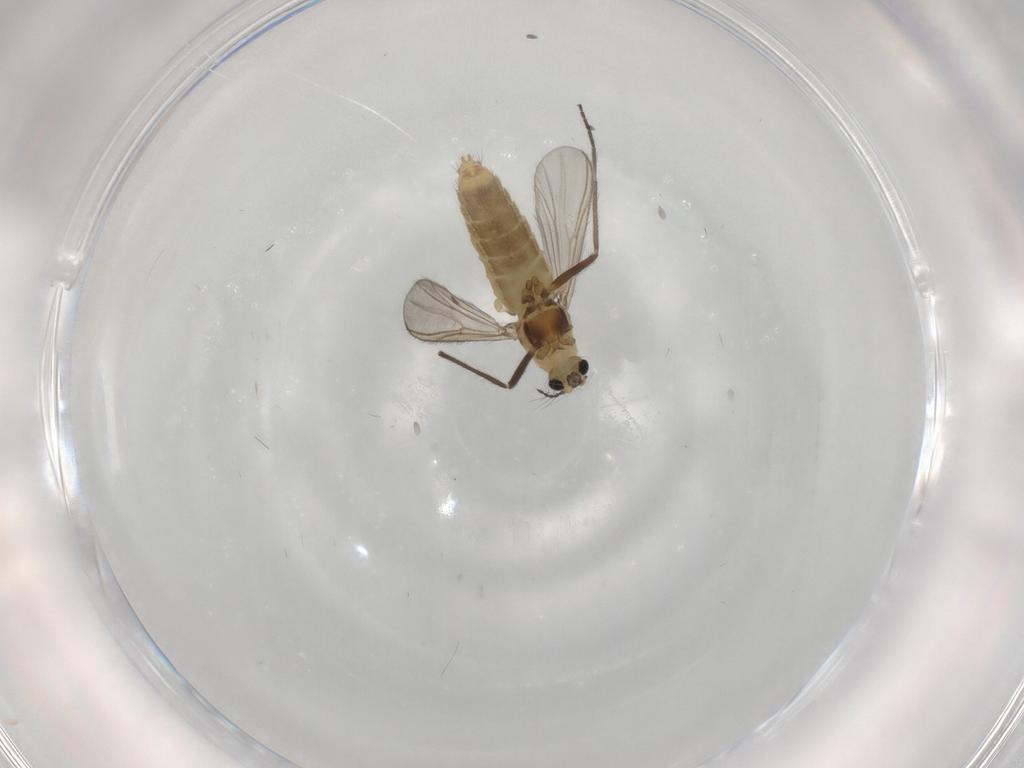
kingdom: Animalia
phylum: Arthropoda
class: Insecta
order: Diptera
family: Chironomidae
